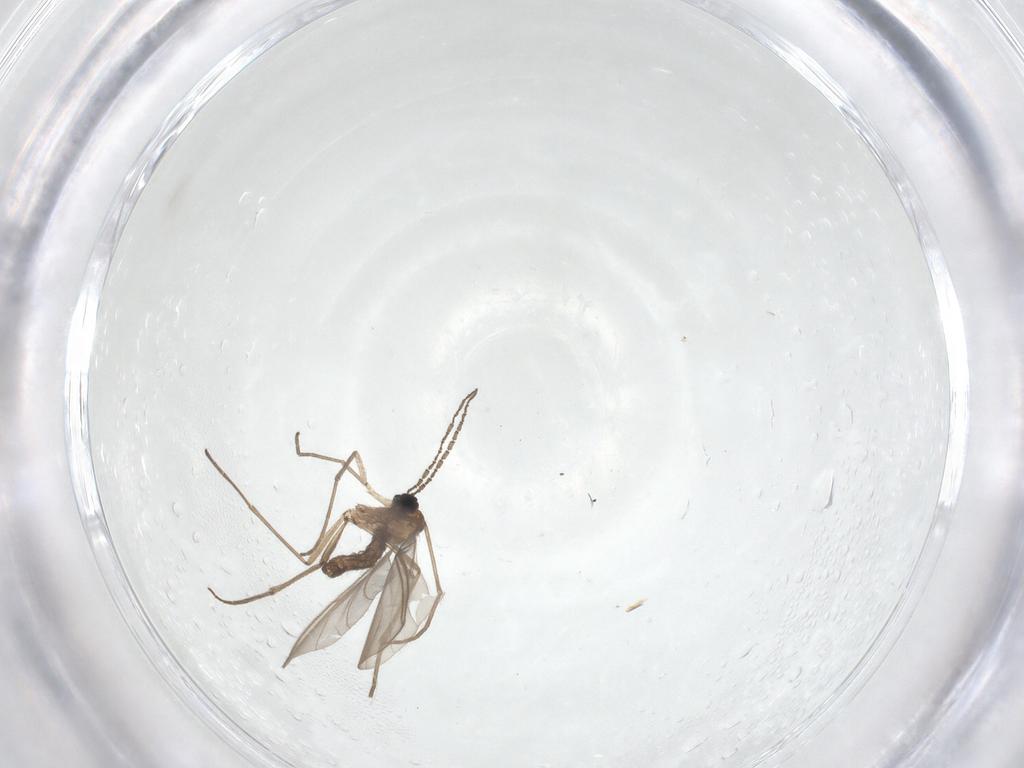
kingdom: Animalia
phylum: Arthropoda
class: Insecta
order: Diptera
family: Sciaridae
